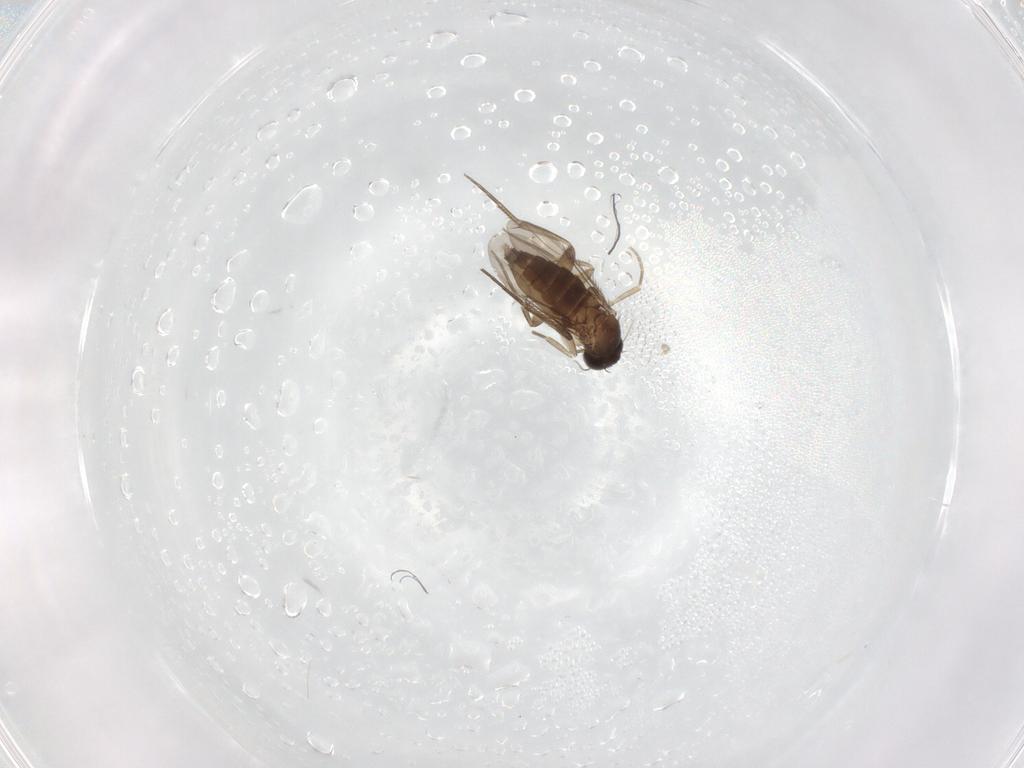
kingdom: Animalia
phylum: Arthropoda
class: Insecta
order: Diptera
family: Phoridae
